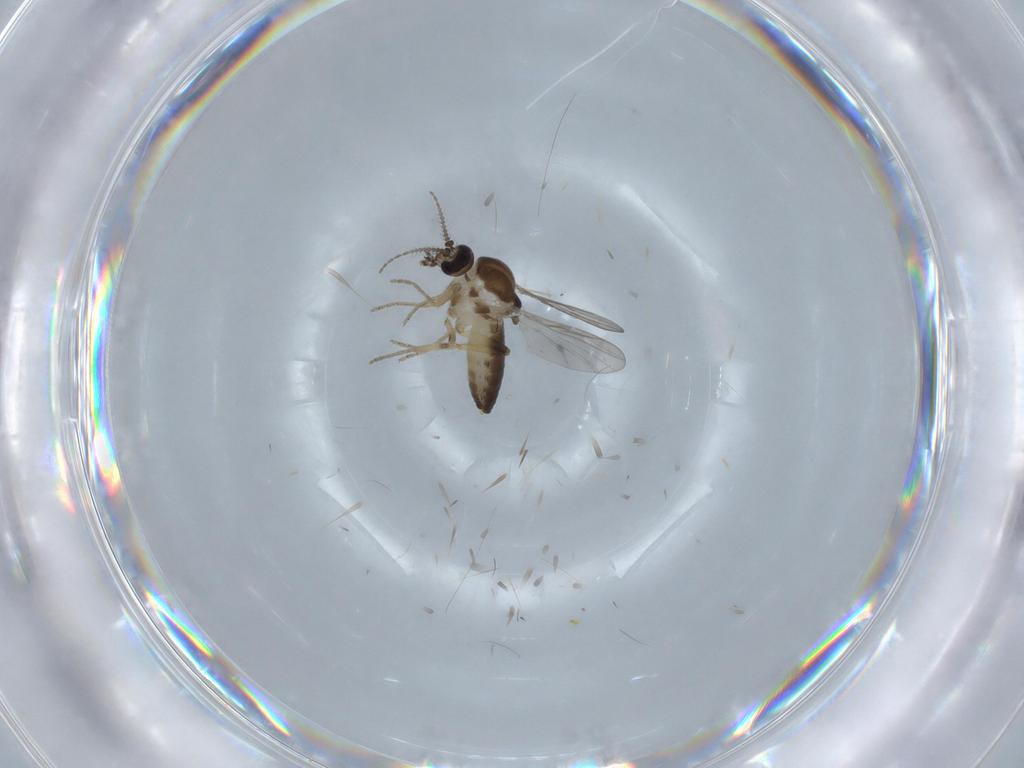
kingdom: Animalia
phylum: Arthropoda
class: Insecta
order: Diptera
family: Ceratopogonidae
